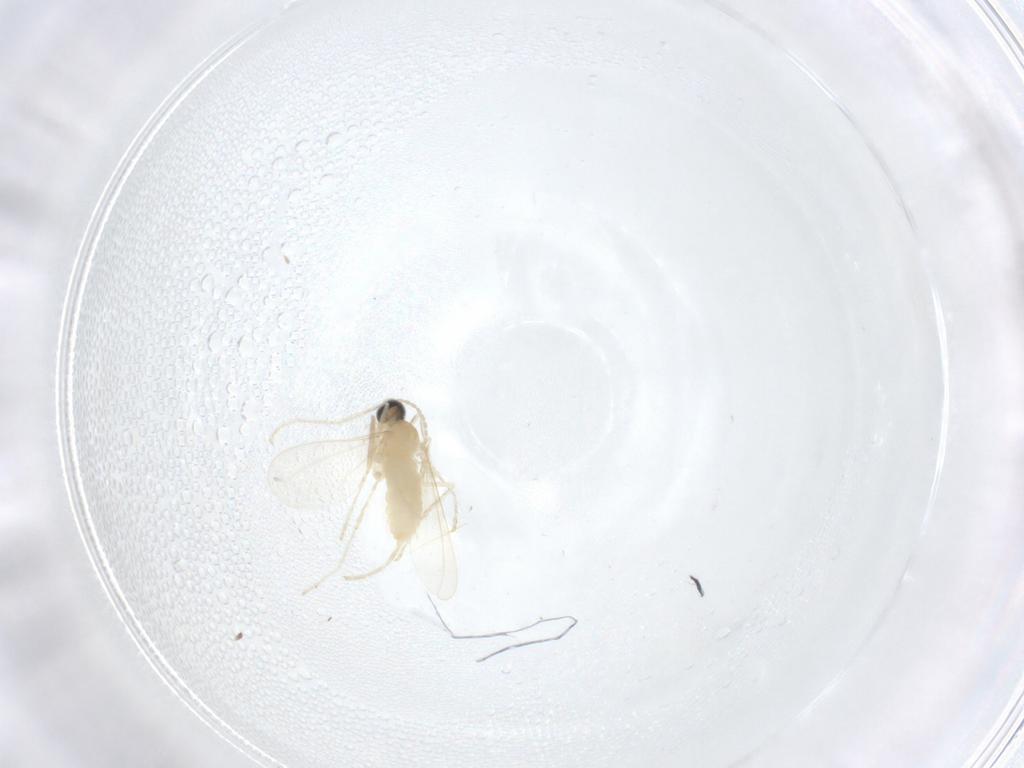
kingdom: Animalia
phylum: Arthropoda
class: Insecta
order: Diptera
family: Cecidomyiidae
